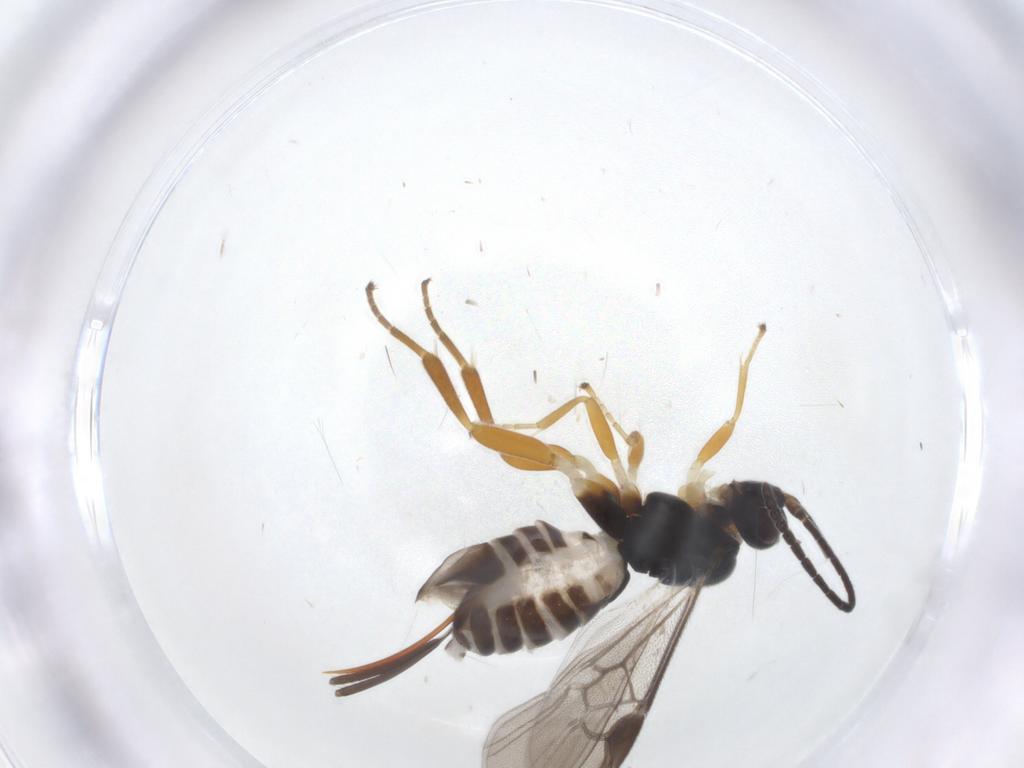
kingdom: Animalia
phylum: Arthropoda
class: Insecta
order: Hymenoptera
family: Braconidae
